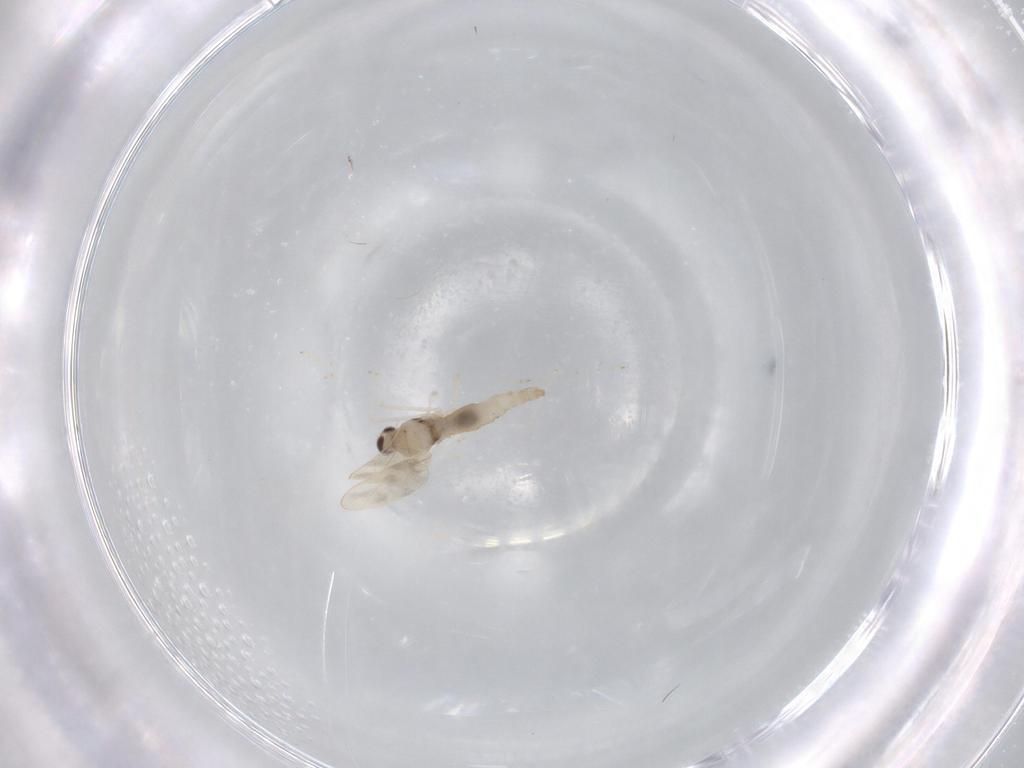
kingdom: Animalia
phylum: Arthropoda
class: Insecta
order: Diptera
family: Cecidomyiidae
